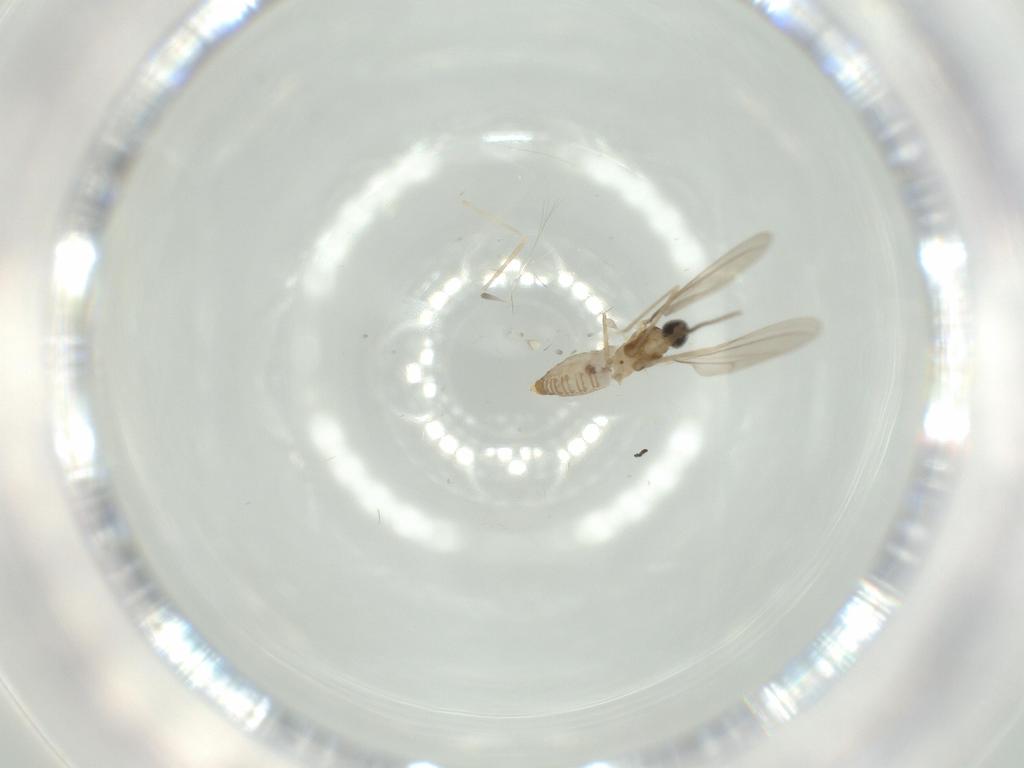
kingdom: Animalia
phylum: Arthropoda
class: Insecta
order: Diptera
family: Cecidomyiidae
